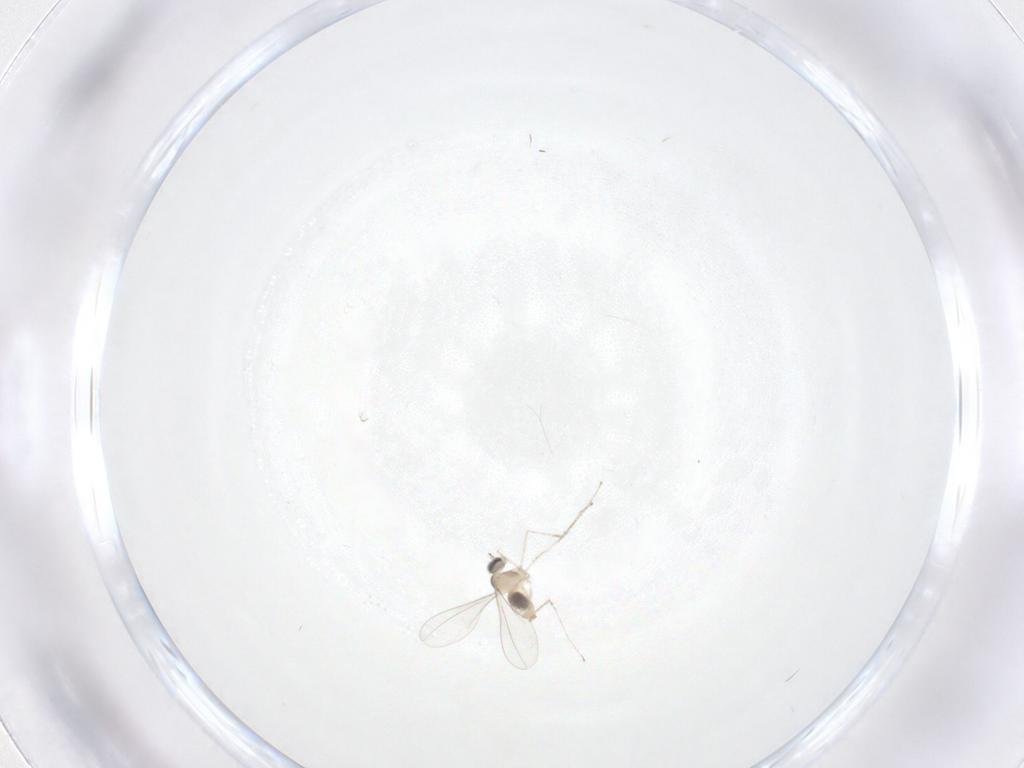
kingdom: Animalia
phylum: Arthropoda
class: Insecta
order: Diptera
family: Cecidomyiidae
